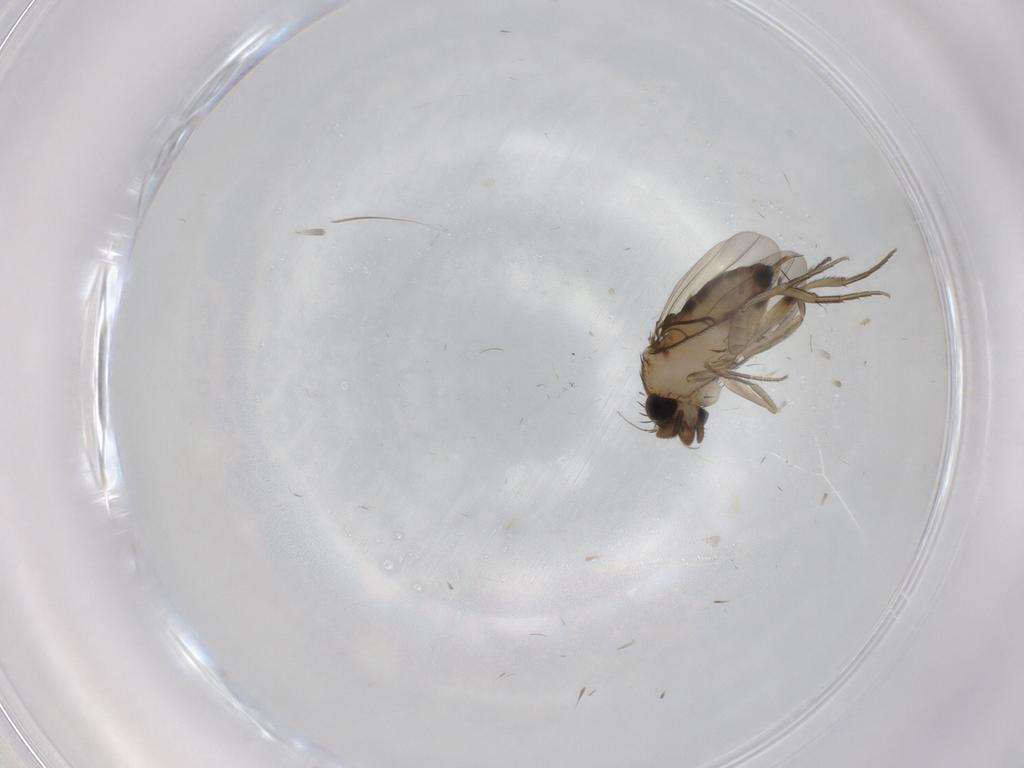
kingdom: Animalia
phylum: Arthropoda
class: Insecta
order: Diptera
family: Phoridae
